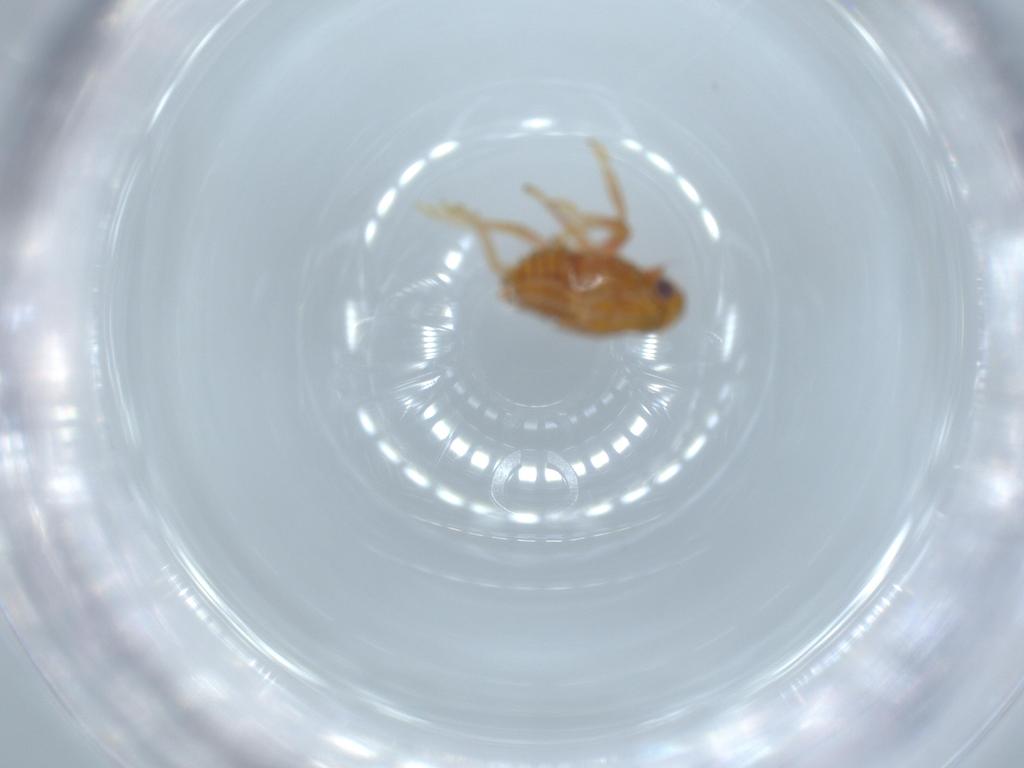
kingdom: Animalia
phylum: Arthropoda
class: Insecta
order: Hemiptera
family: Issidae
